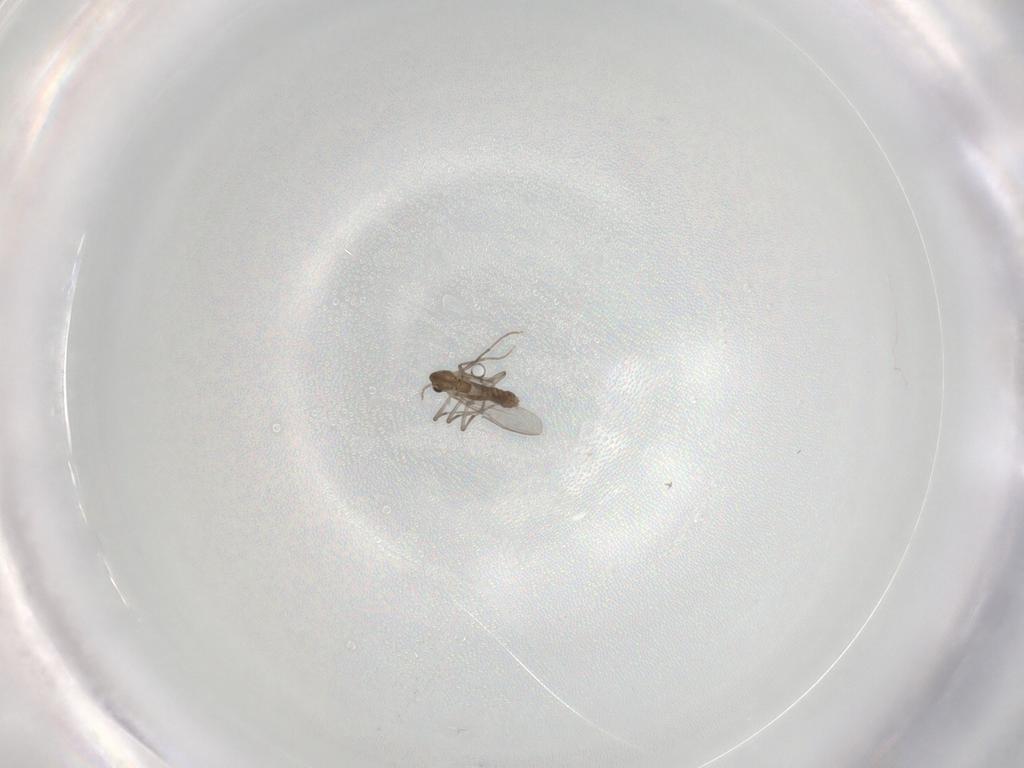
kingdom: Animalia
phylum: Arthropoda
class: Insecta
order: Diptera
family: Chironomidae
